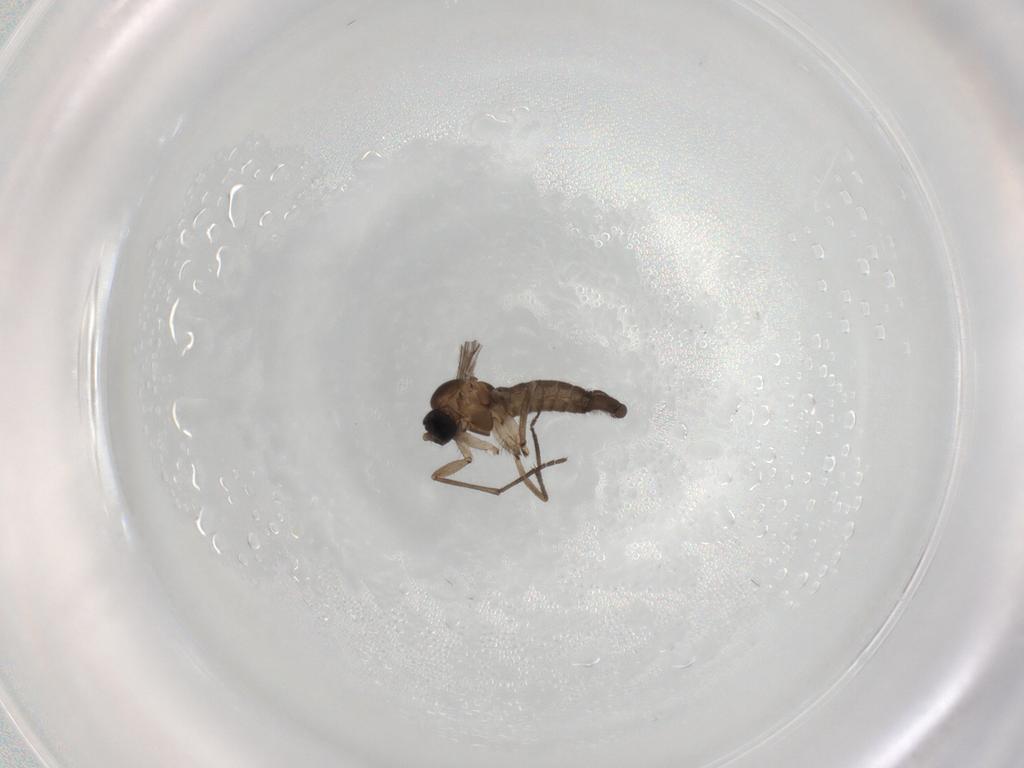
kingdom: Animalia
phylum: Arthropoda
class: Insecta
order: Diptera
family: Sciaridae
